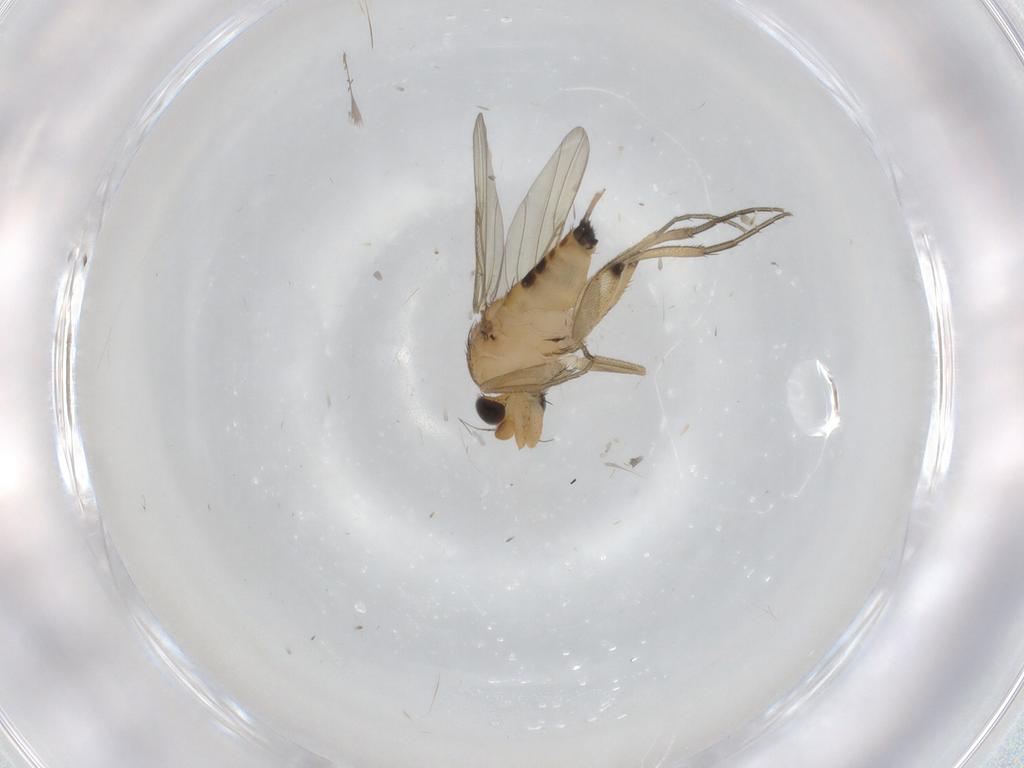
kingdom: Animalia
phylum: Arthropoda
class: Insecta
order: Diptera
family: Phoridae
